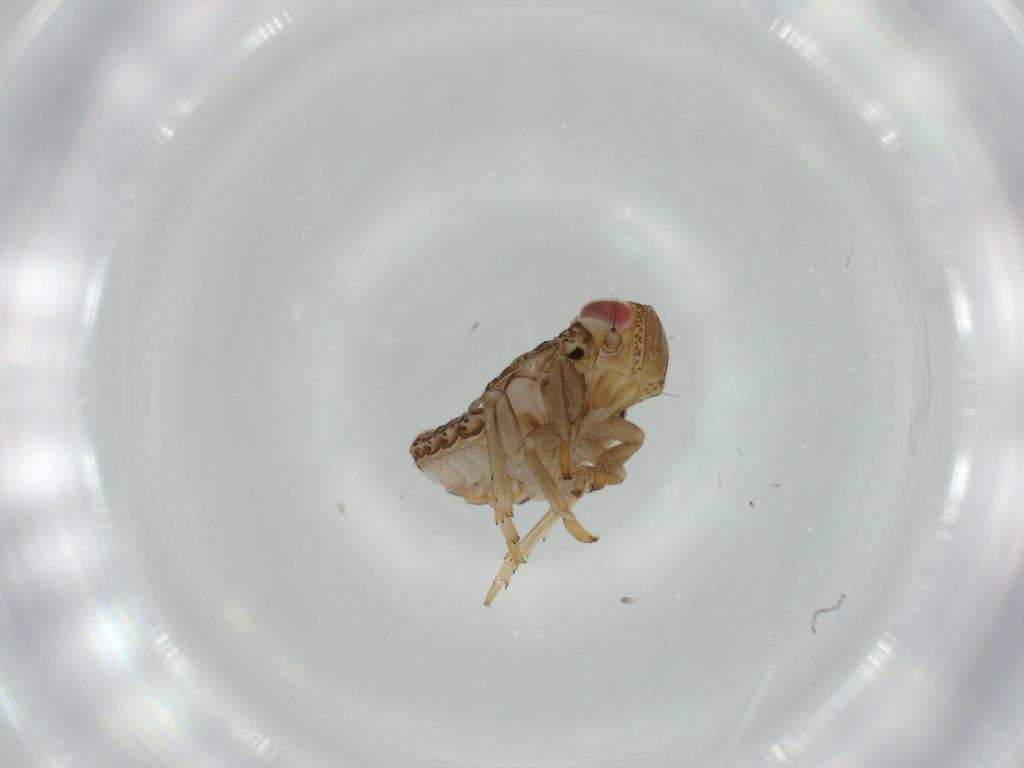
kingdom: Animalia
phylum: Arthropoda
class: Insecta
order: Hemiptera
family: Issidae
